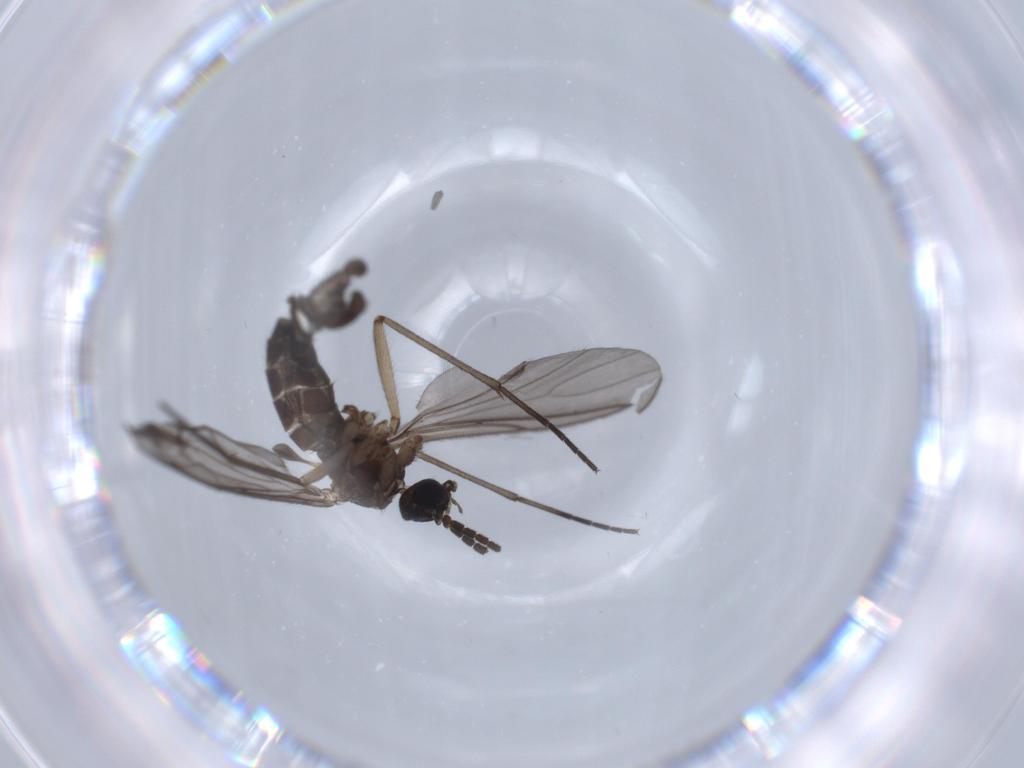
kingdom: Animalia
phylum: Arthropoda
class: Insecta
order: Diptera
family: Sciaridae
